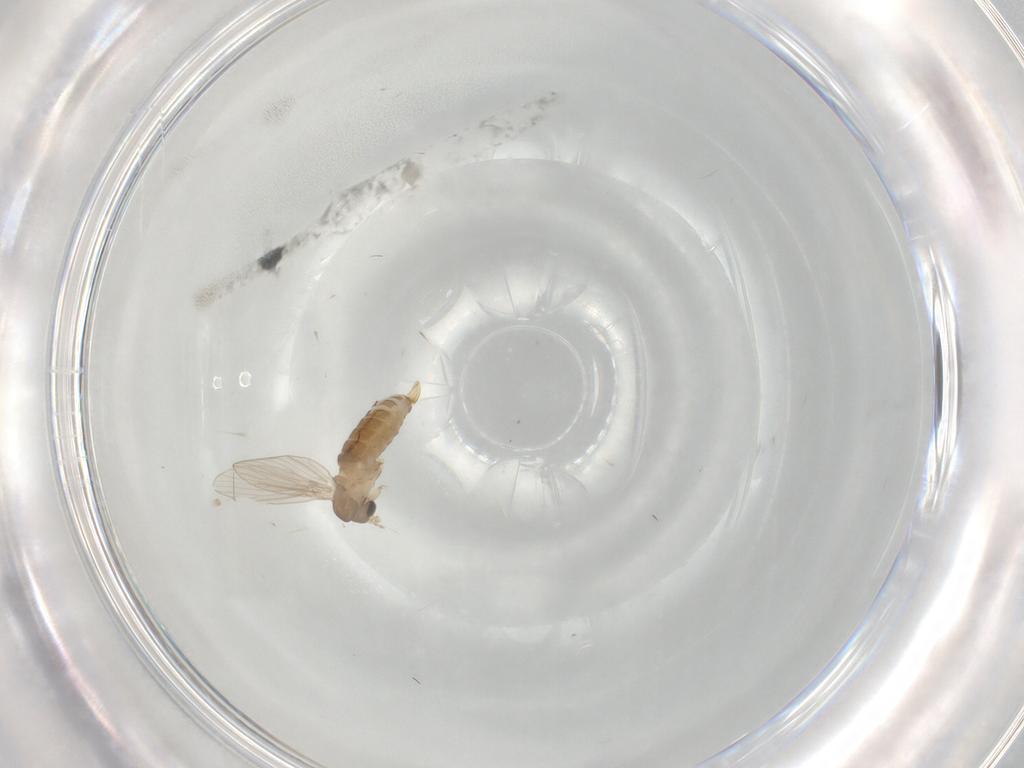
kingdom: Animalia
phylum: Arthropoda
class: Insecta
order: Diptera
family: Psychodidae
